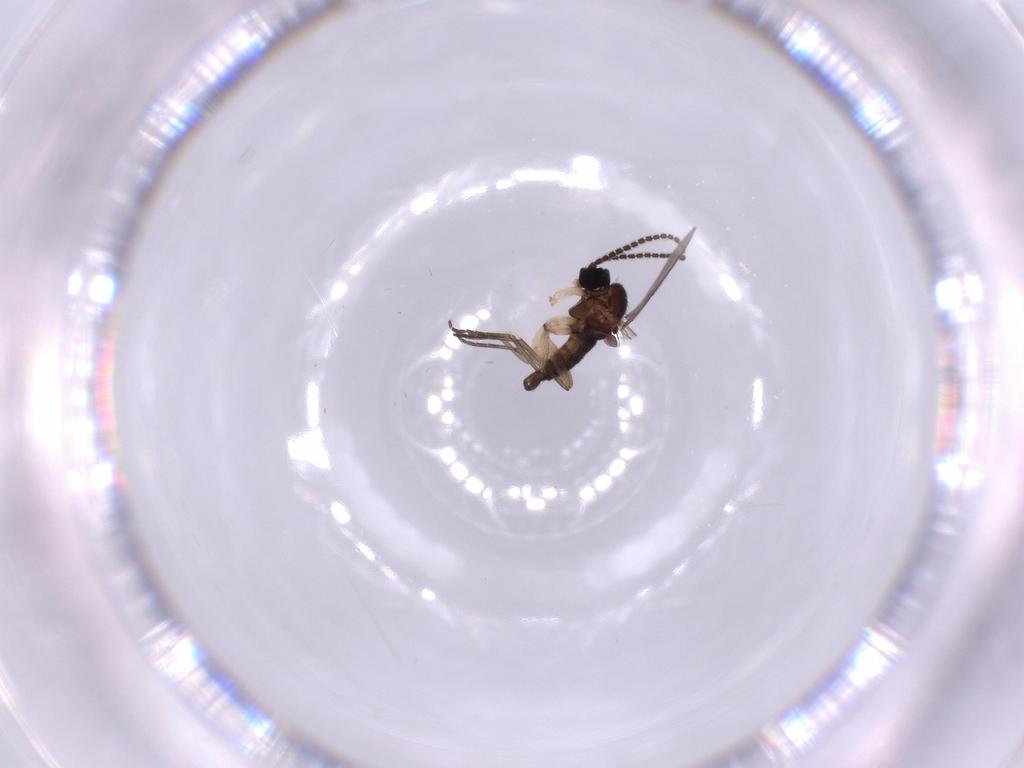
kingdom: Animalia
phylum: Arthropoda
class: Insecta
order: Diptera
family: Sciaridae
